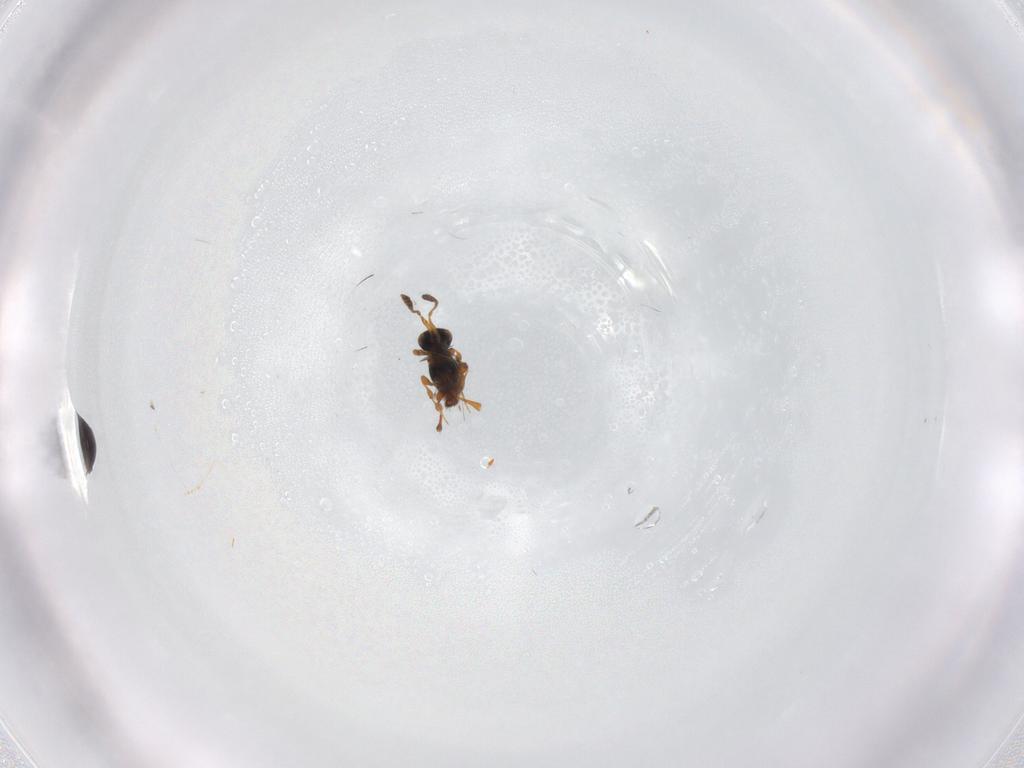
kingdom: Animalia
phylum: Arthropoda
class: Insecta
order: Hymenoptera
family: Platygastridae
